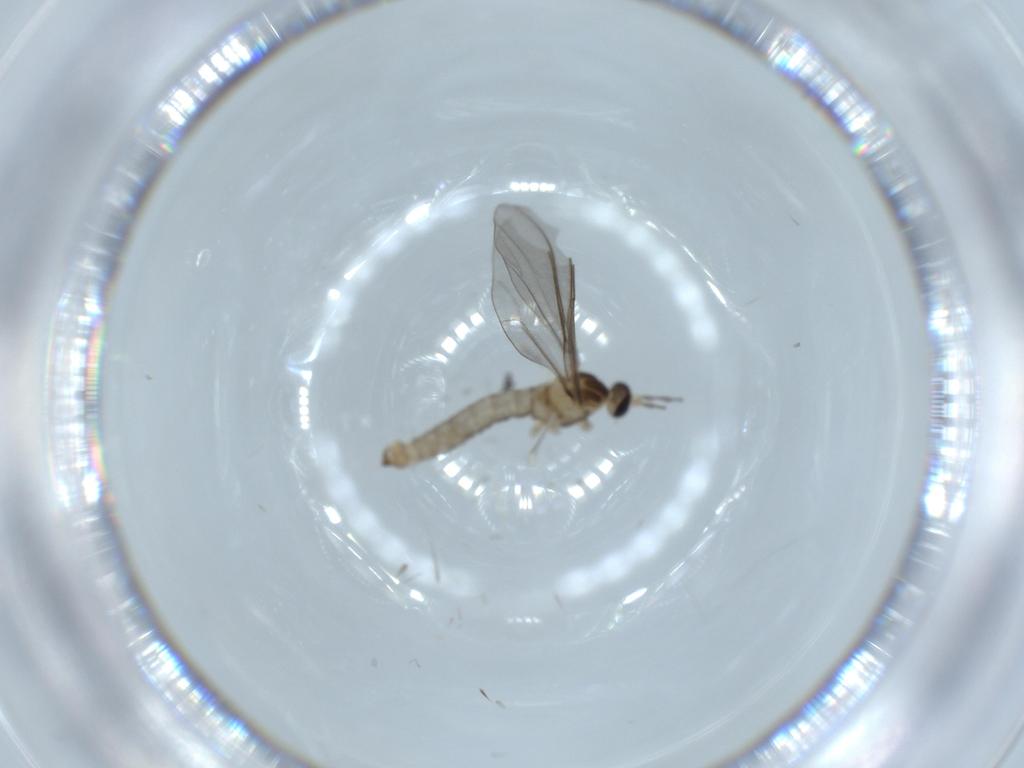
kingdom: Animalia
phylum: Arthropoda
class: Insecta
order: Diptera
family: Cecidomyiidae
